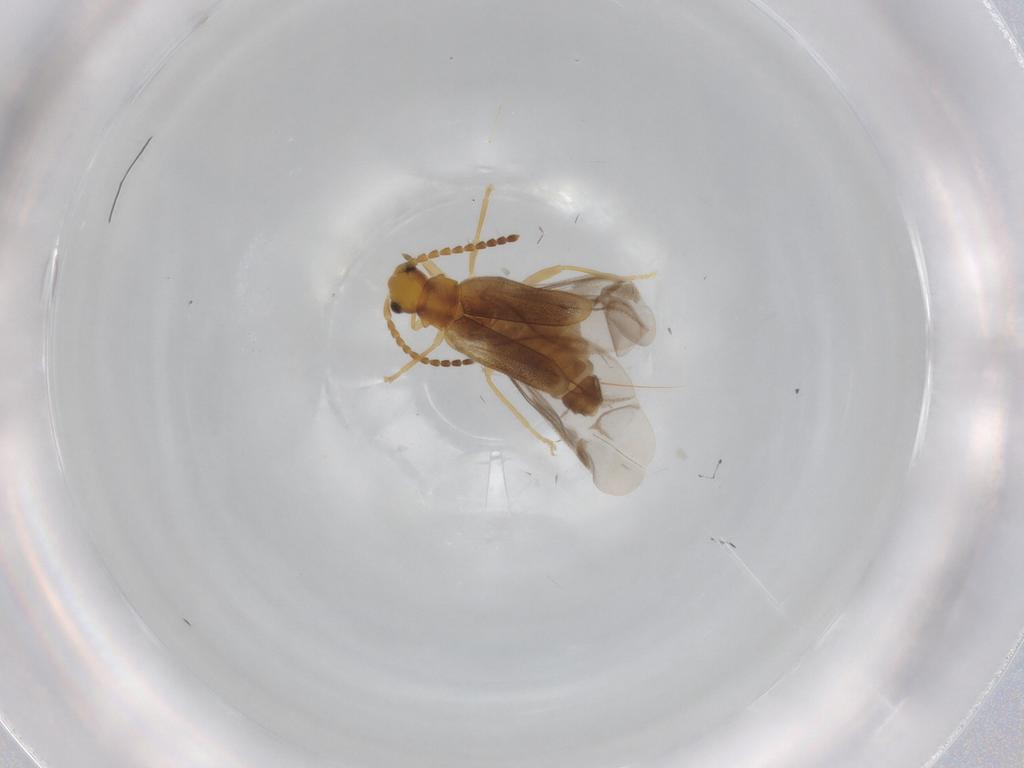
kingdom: Animalia
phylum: Arthropoda
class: Insecta
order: Coleoptera
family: Cantharidae
